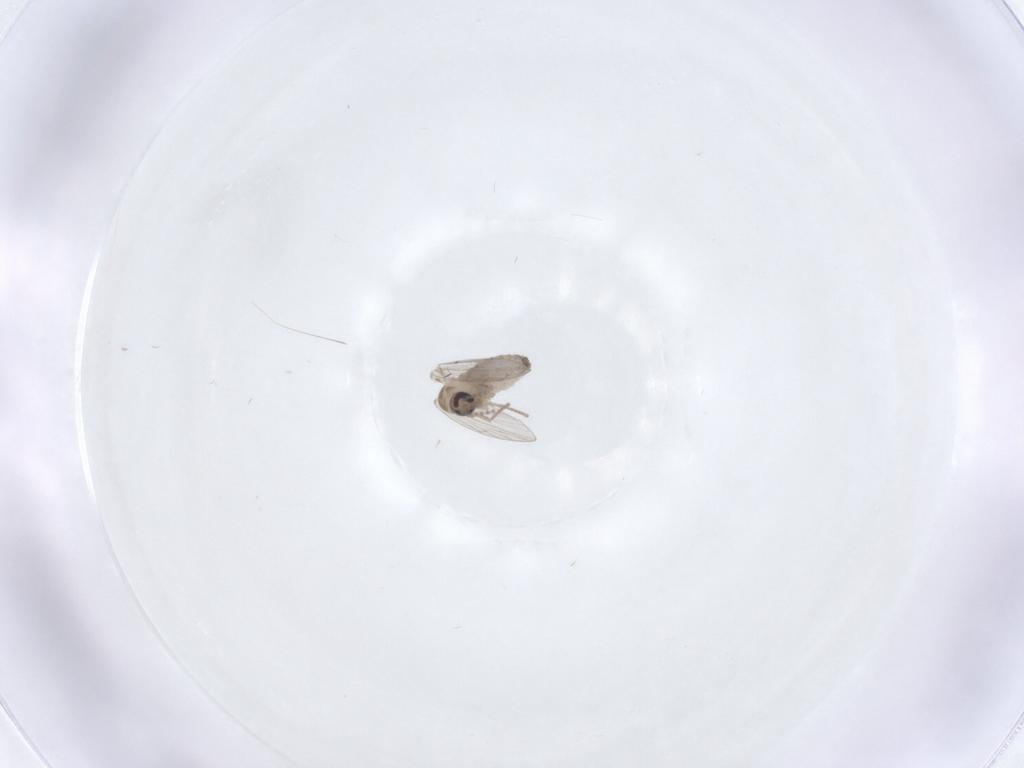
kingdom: Animalia
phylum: Arthropoda
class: Insecta
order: Diptera
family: Psychodidae
